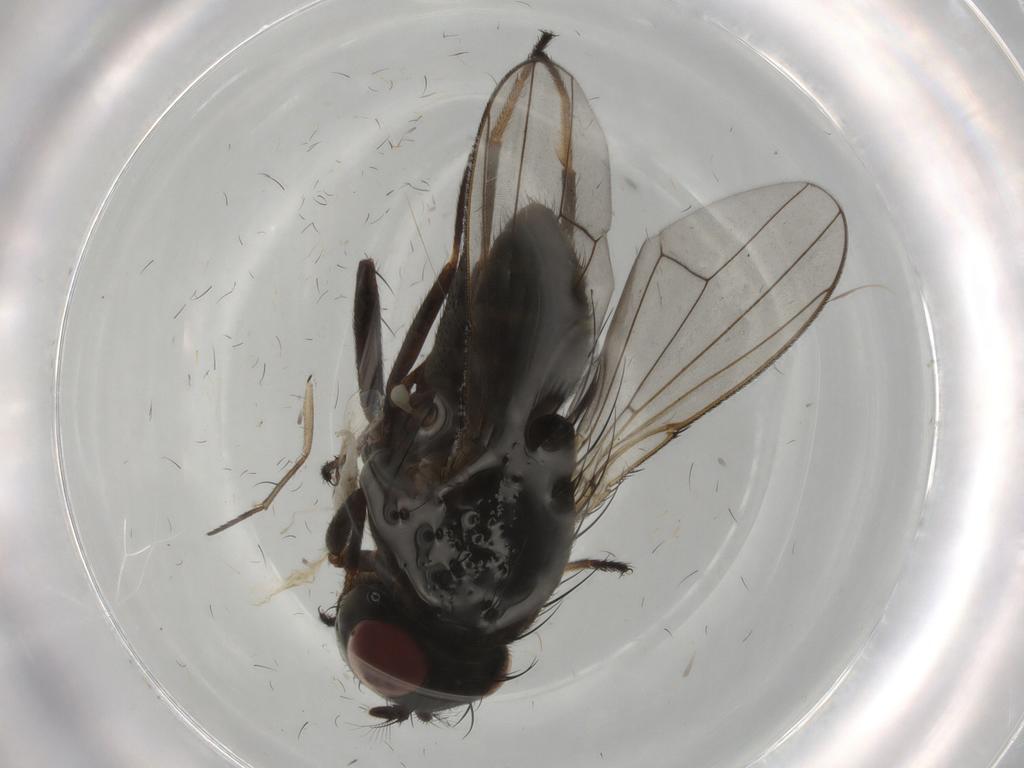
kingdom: Animalia
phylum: Arthropoda
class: Insecta
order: Diptera
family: Ephydridae
